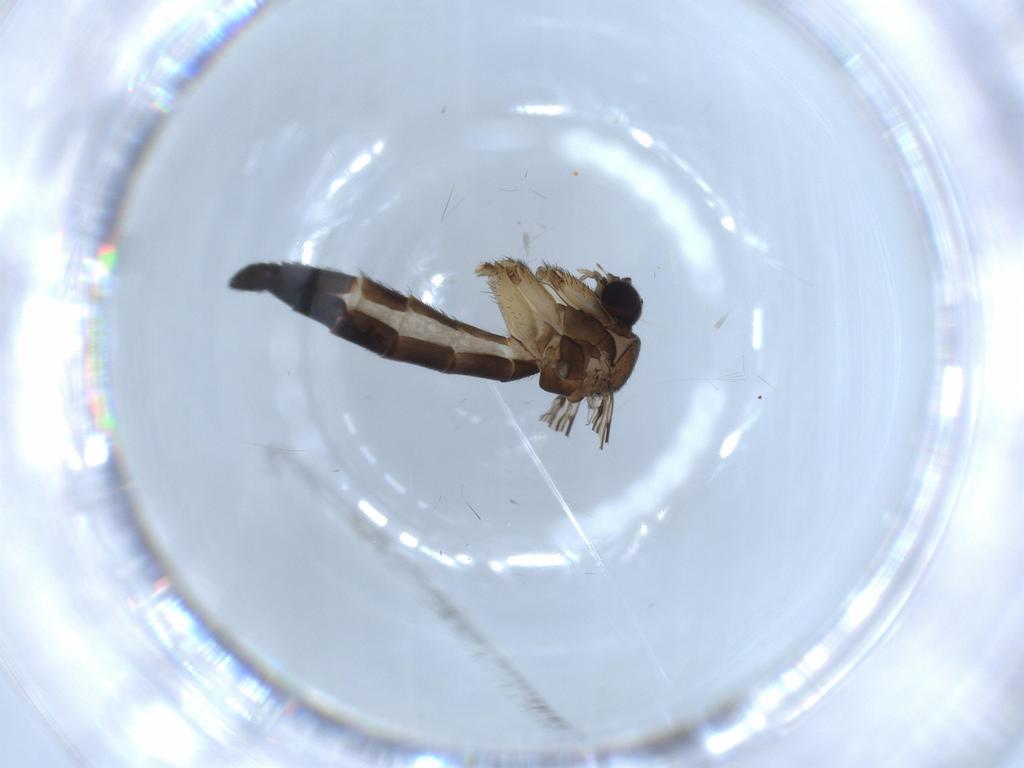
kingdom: Animalia
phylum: Arthropoda
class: Insecta
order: Diptera
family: Keroplatidae
